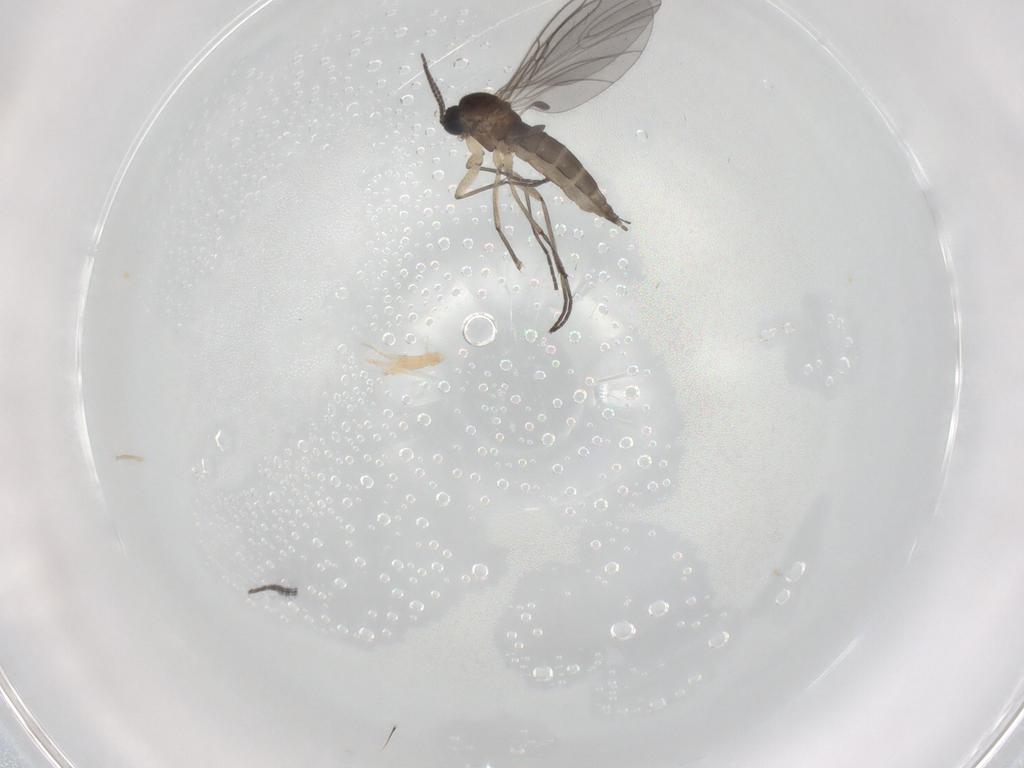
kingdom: Animalia
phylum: Arthropoda
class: Insecta
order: Diptera
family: Sciaridae
